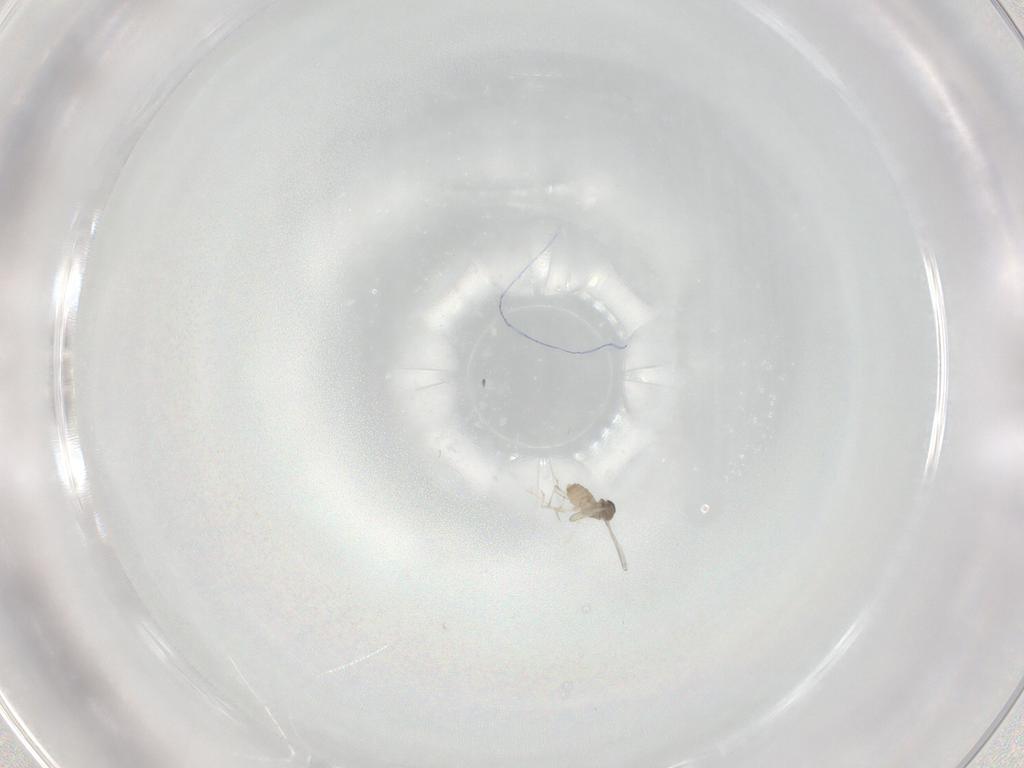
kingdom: Animalia
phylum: Arthropoda
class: Insecta
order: Diptera
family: Cecidomyiidae
